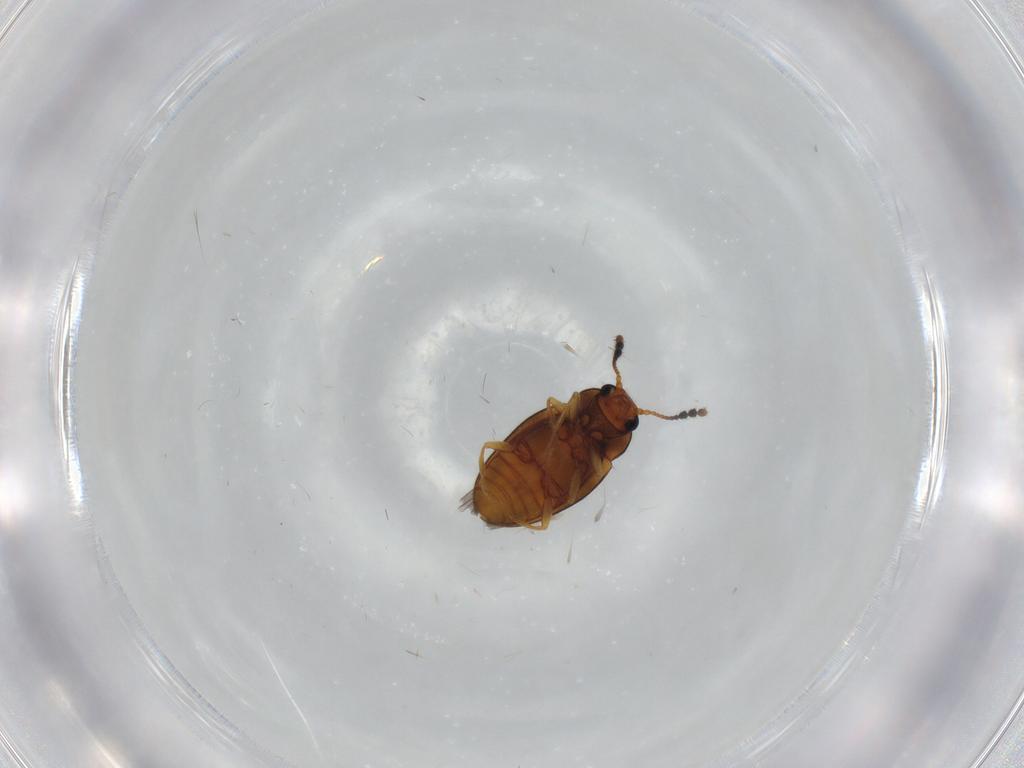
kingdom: Animalia
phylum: Arthropoda
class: Insecta
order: Coleoptera
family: Erotylidae
